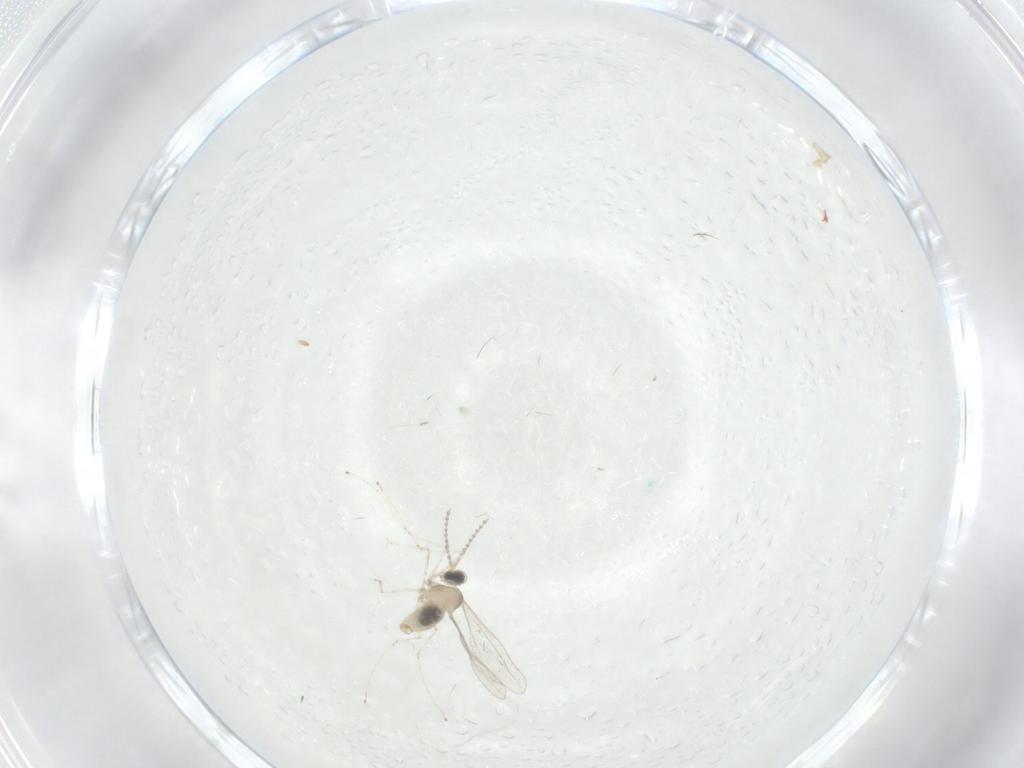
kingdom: Animalia
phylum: Arthropoda
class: Insecta
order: Diptera
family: Cecidomyiidae
